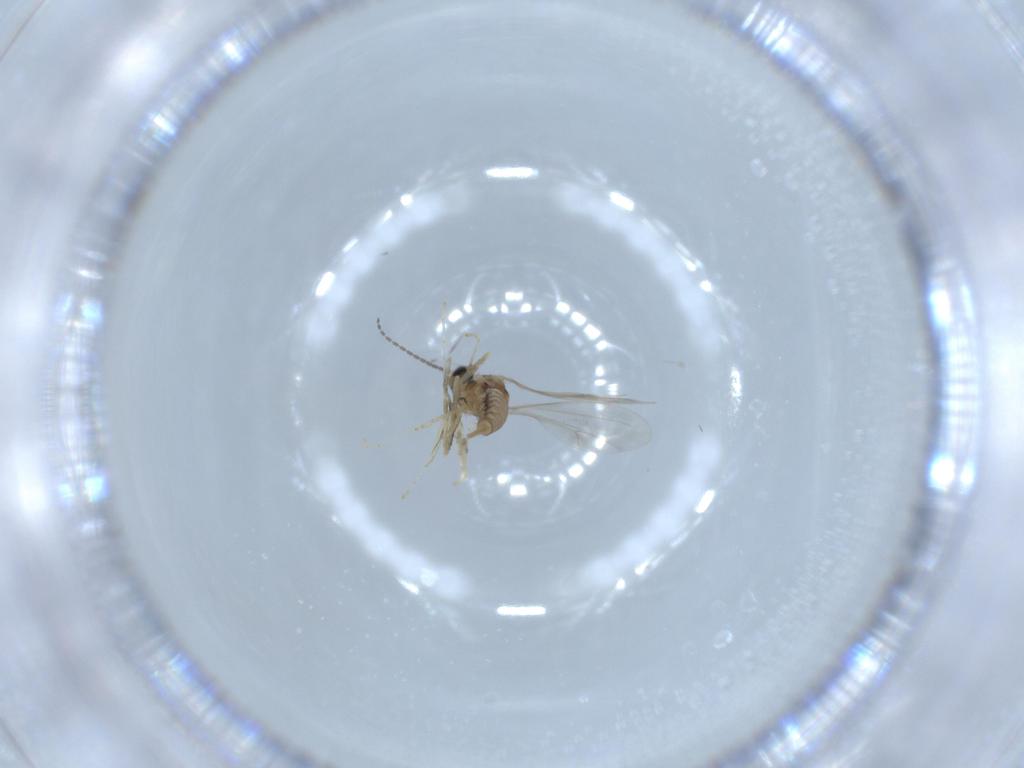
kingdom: Animalia
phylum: Arthropoda
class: Insecta
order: Diptera
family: Cecidomyiidae
